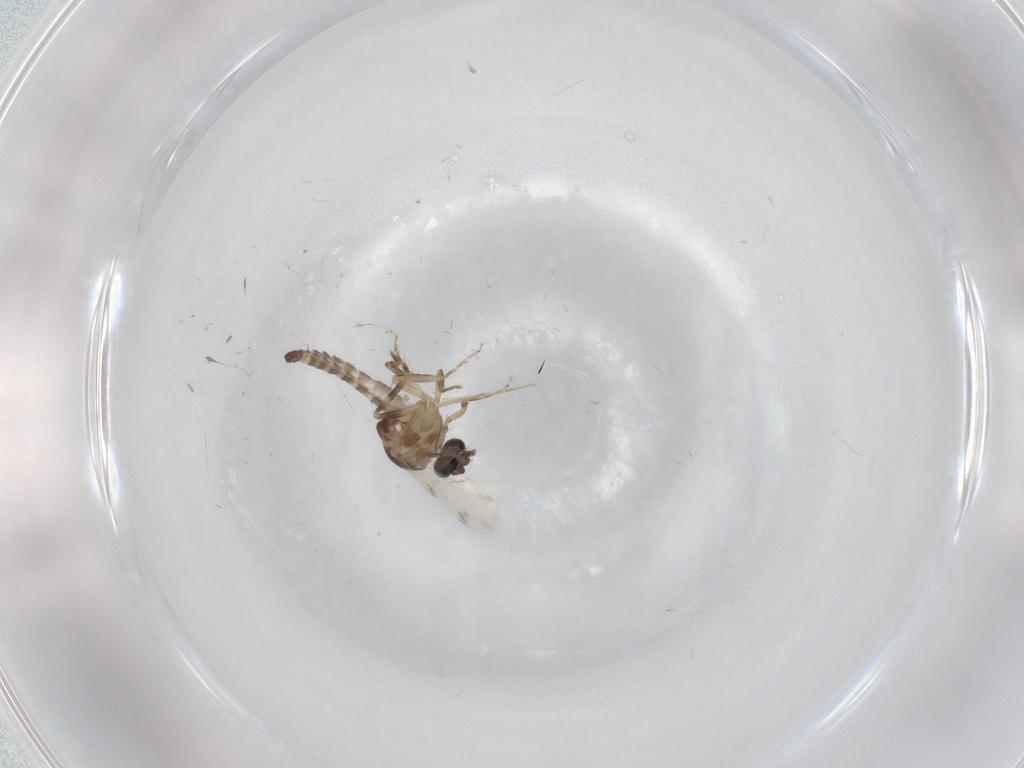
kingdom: Animalia
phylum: Arthropoda
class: Insecta
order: Diptera
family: Ceratopogonidae
